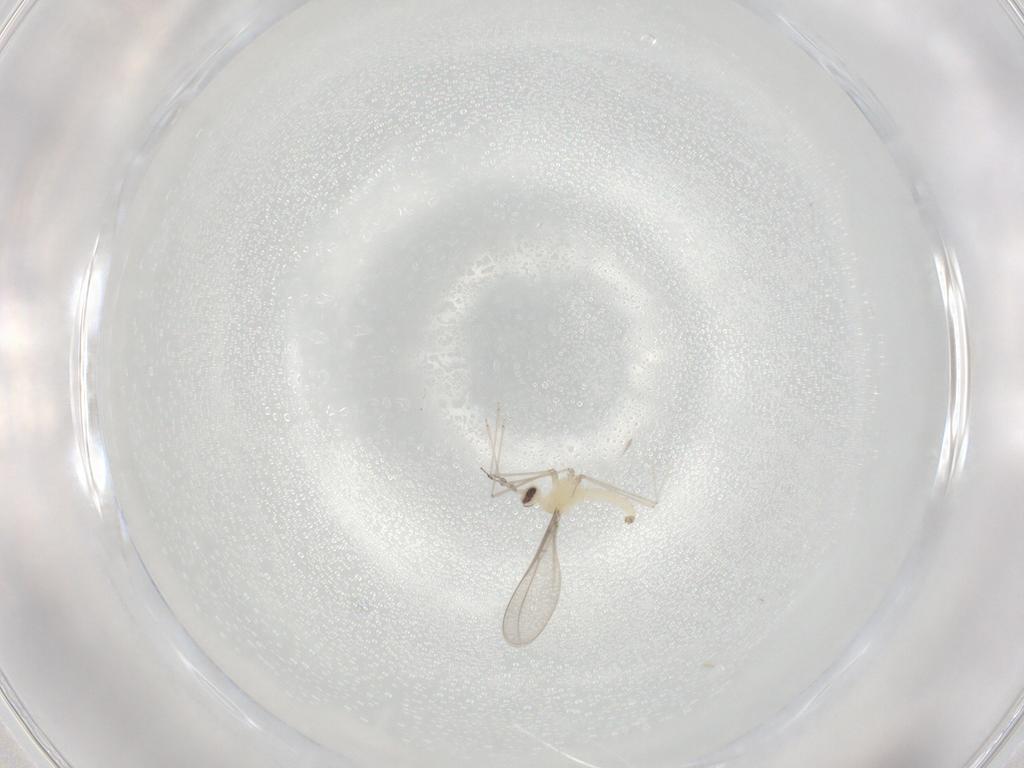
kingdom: Animalia
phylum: Arthropoda
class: Insecta
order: Diptera
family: Cecidomyiidae
